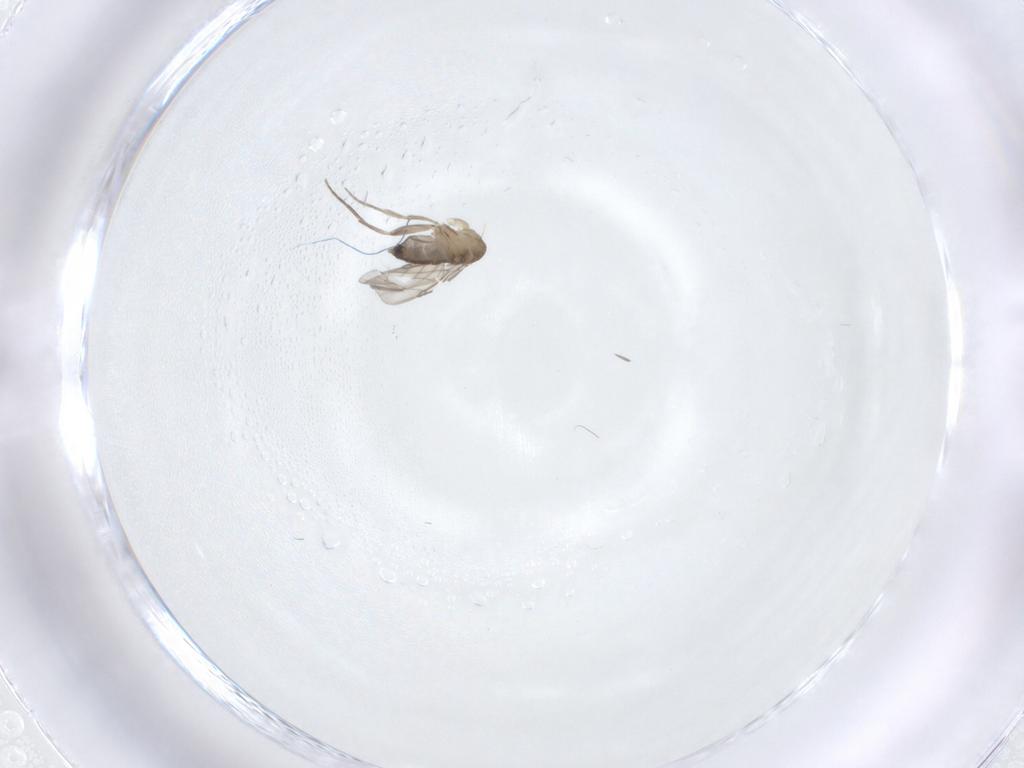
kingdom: Animalia
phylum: Arthropoda
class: Insecta
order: Diptera
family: Phoridae
